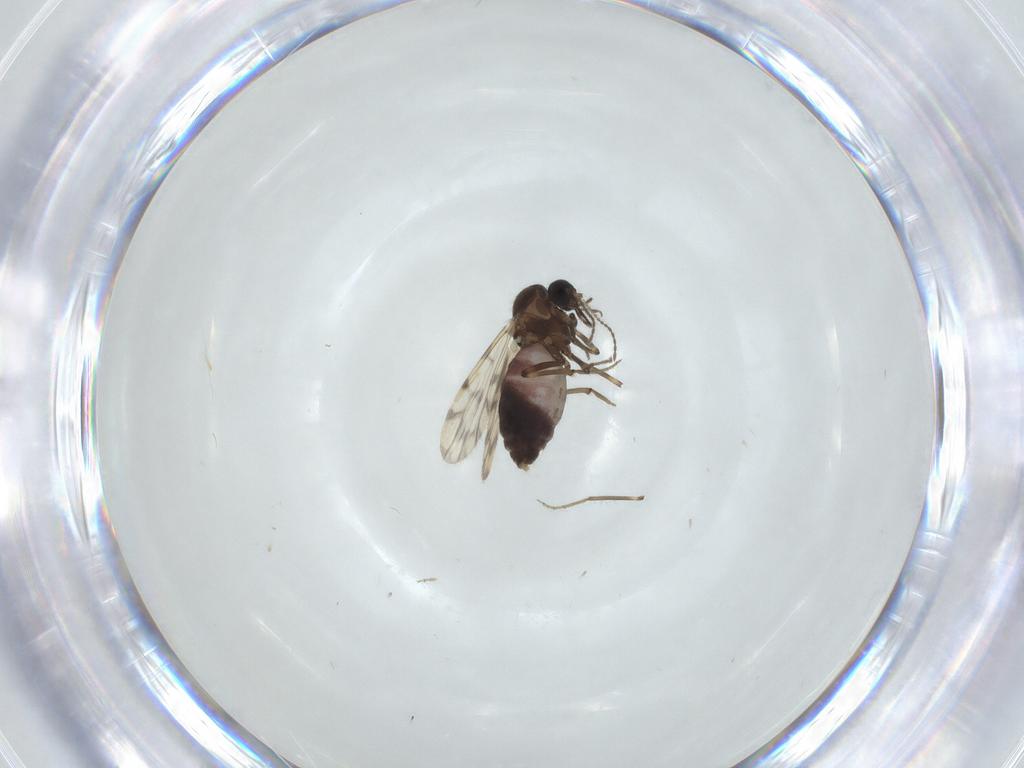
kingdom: Animalia
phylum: Arthropoda
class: Insecta
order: Diptera
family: Ceratopogonidae
